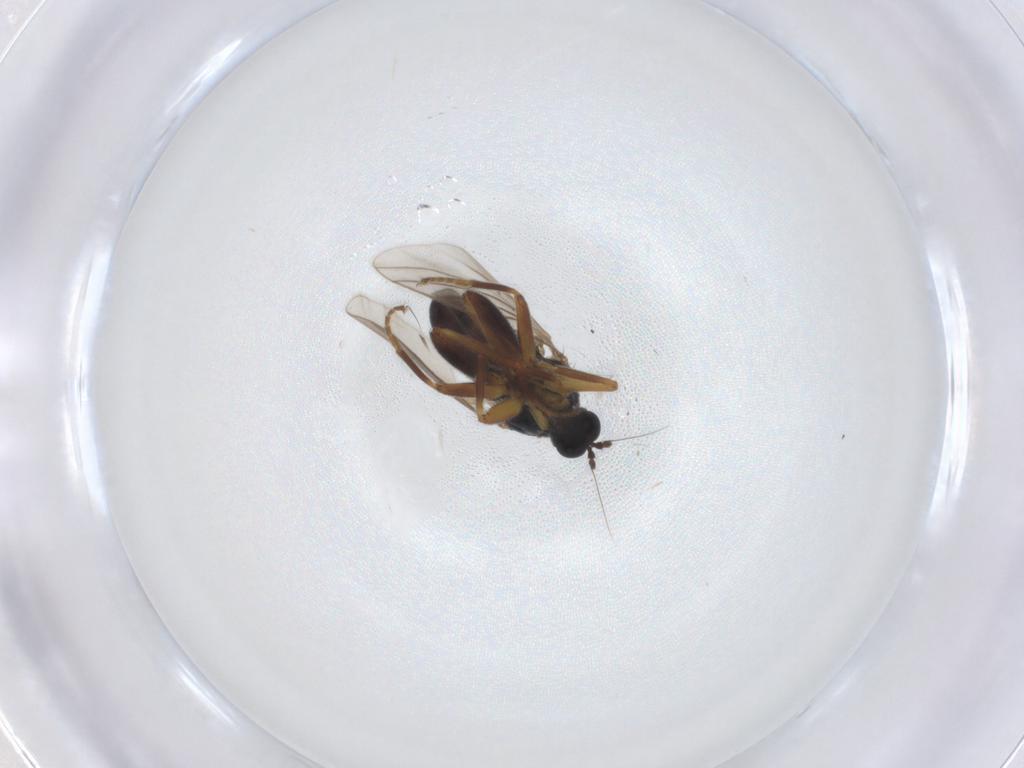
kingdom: Animalia
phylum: Arthropoda
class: Insecta
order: Diptera
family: Hybotidae
